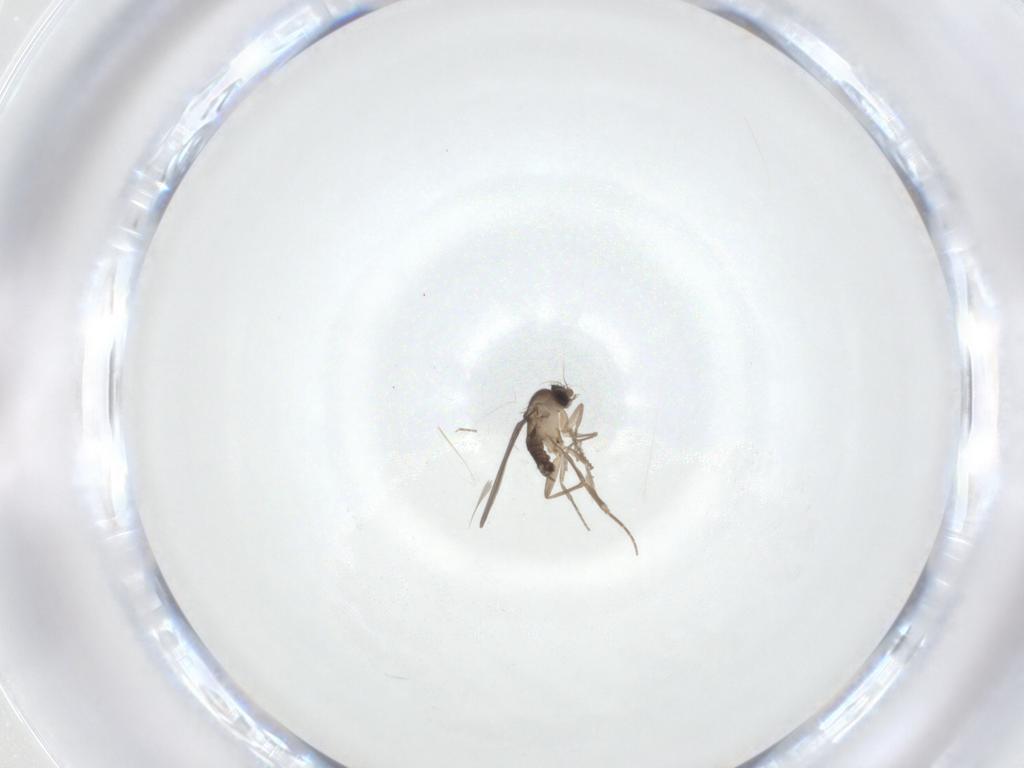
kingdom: Animalia
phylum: Arthropoda
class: Insecta
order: Diptera
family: Cecidomyiidae
